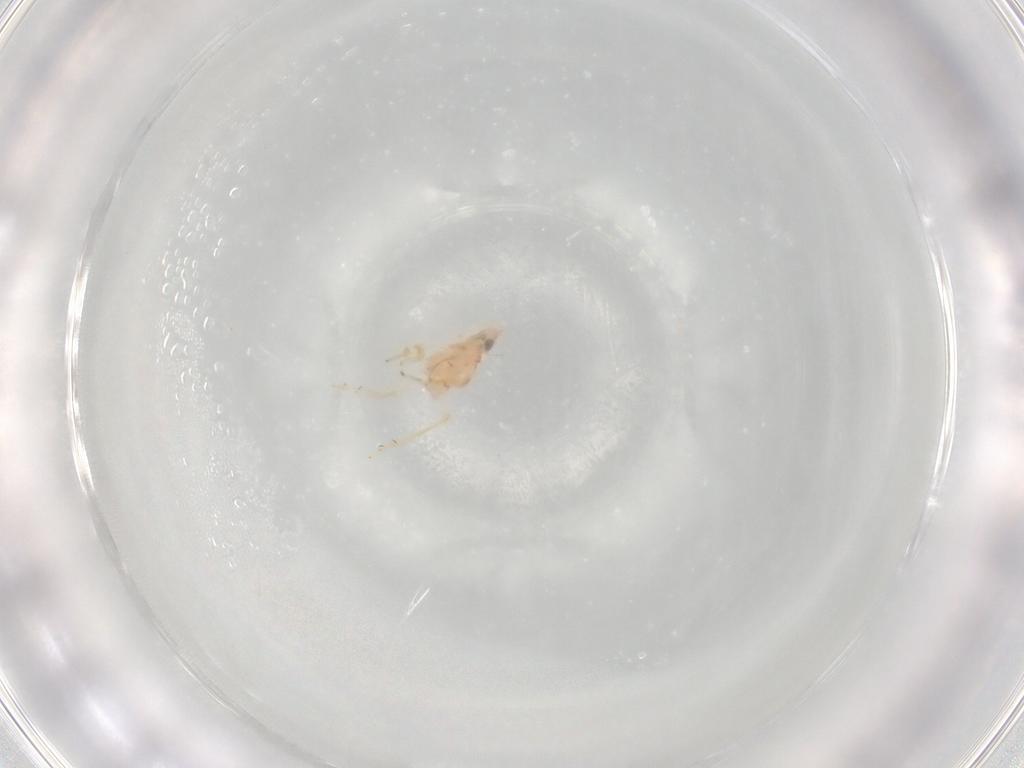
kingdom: Animalia
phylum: Arthropoda
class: Insecta
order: Hemiptera
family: Tropiduchidae
